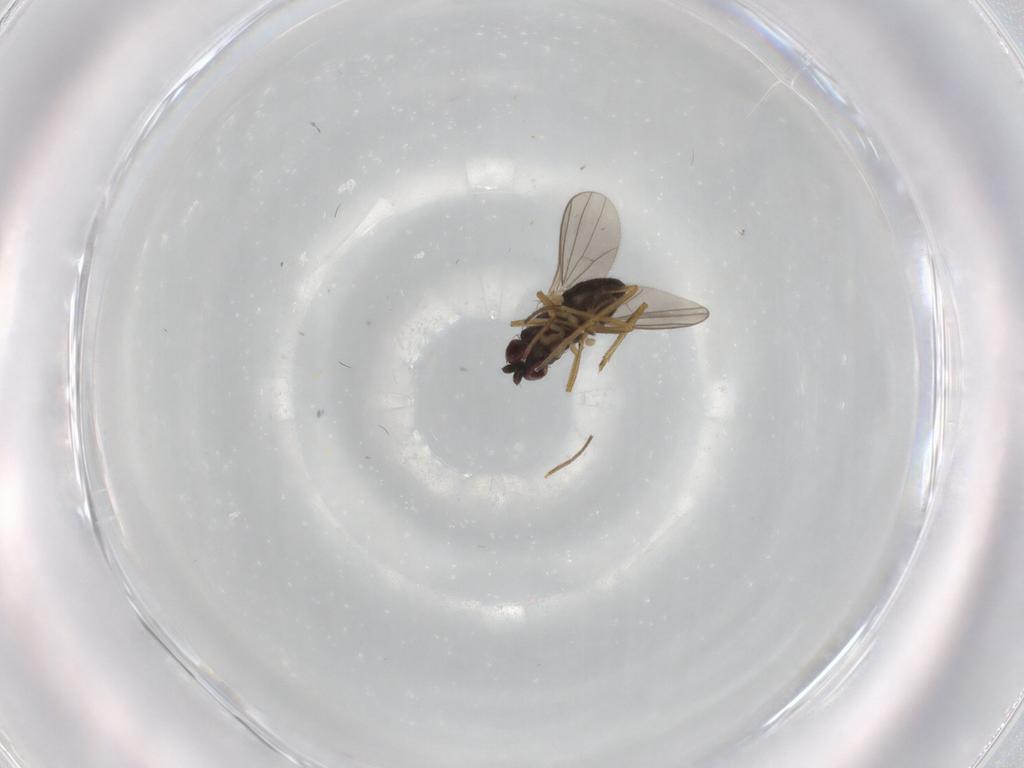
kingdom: Animalia
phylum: Arthropoda
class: Insecta
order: Diptera
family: Dolichopodidae
